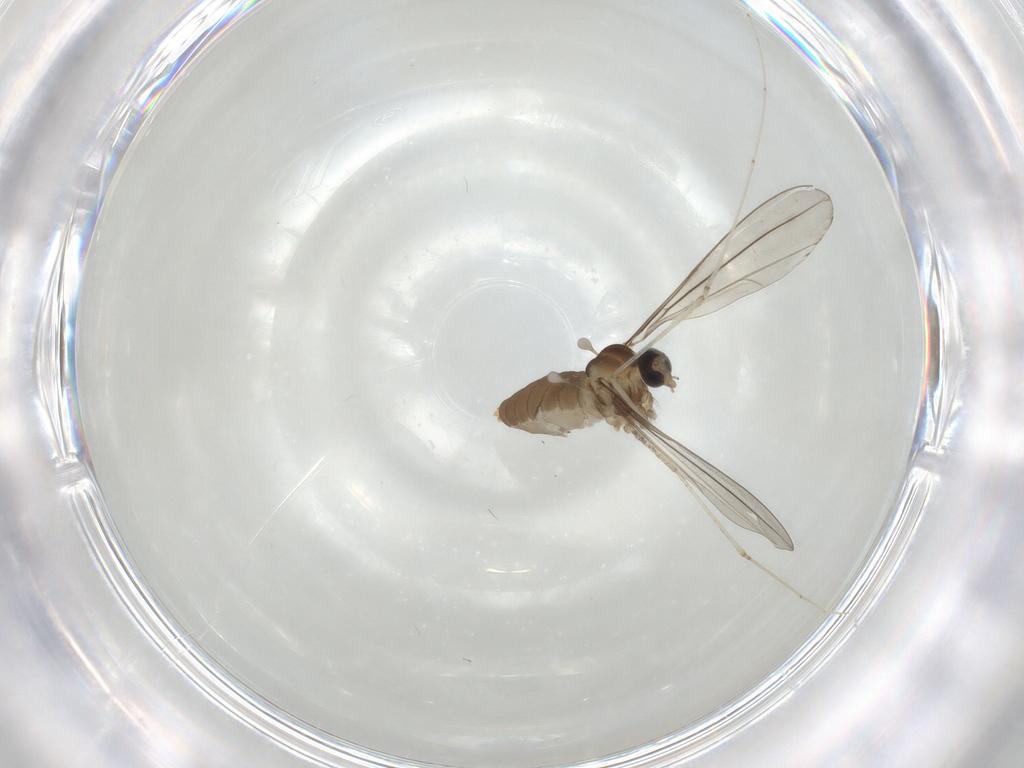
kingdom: Animalia
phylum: Arthropoda
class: Insecta
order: Diptera
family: Cecidomyiidae
